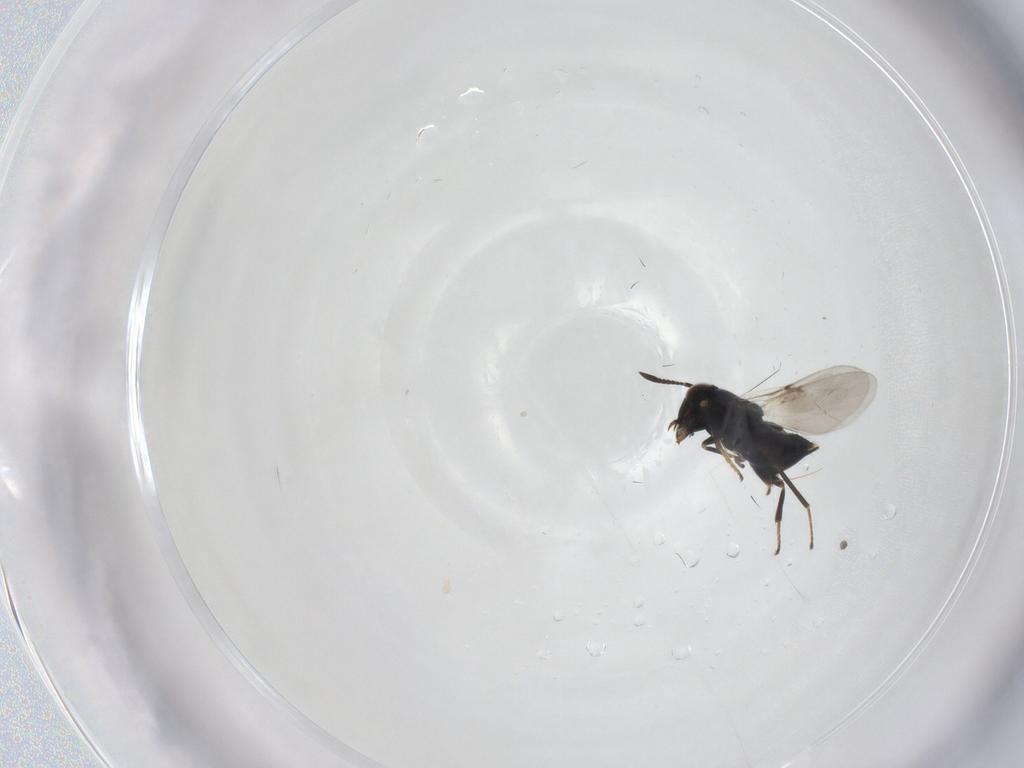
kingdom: Animalia
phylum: Arthropoda
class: Insecta
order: Hymenoptera
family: Encyrtidae
